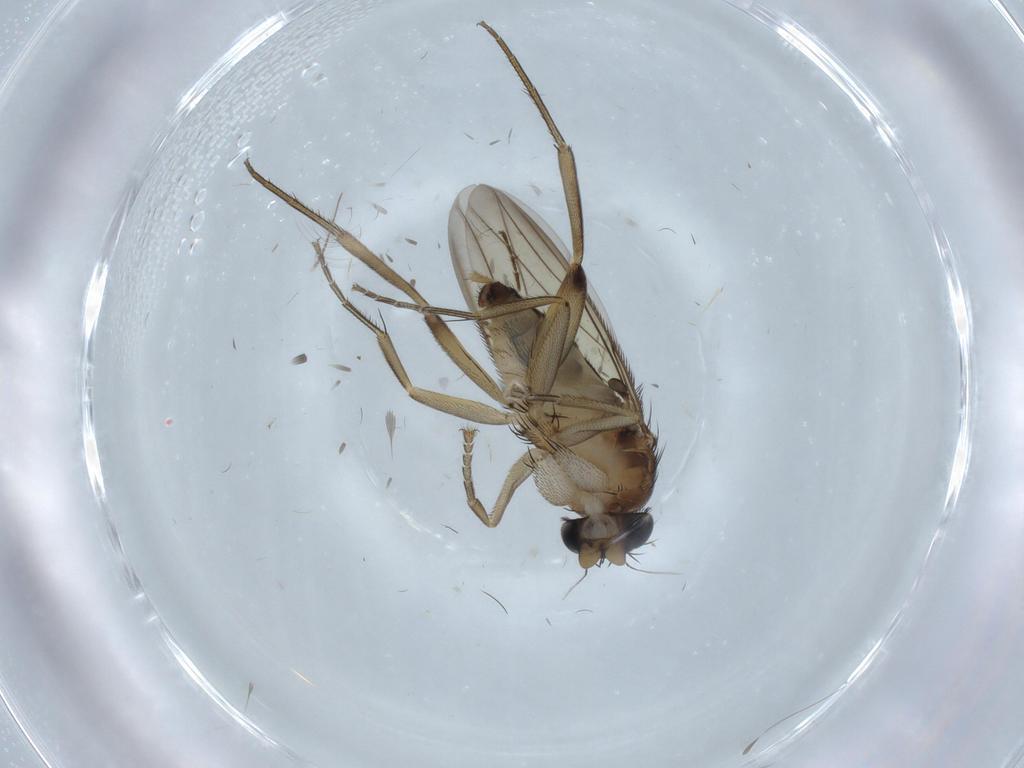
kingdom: Animalia
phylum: Arthropoda
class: Insecta
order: Diptera
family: Phoridae
